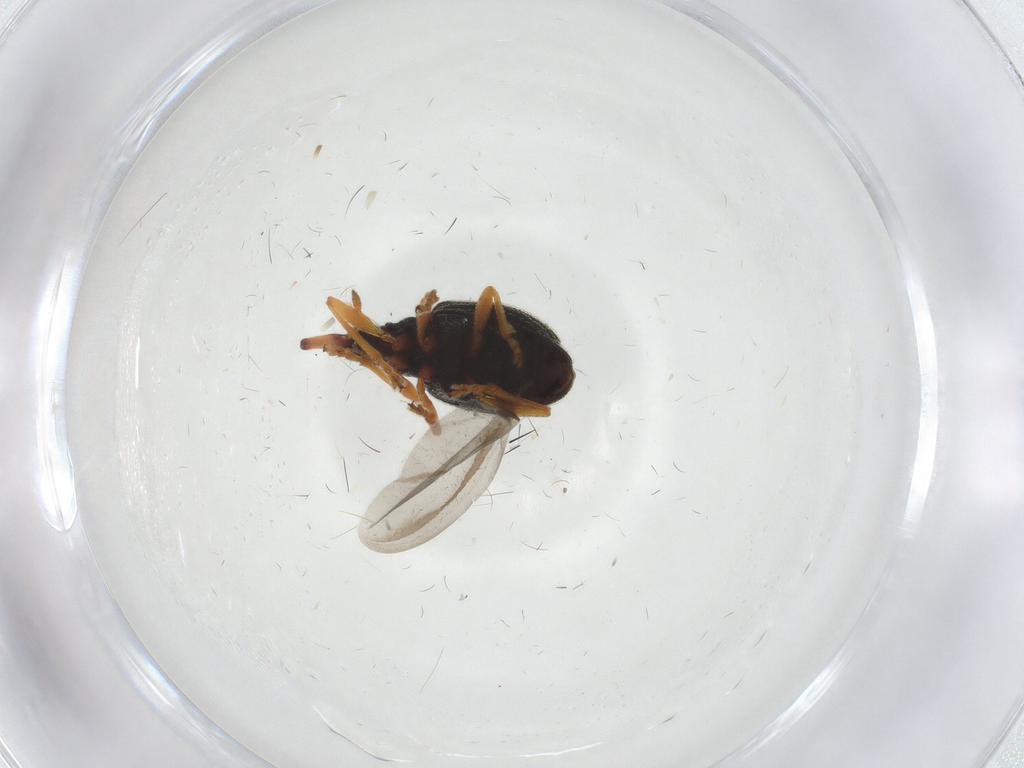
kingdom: Animalia
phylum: Arthropoda
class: Insecta
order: Coleoptera
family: Brentidae
